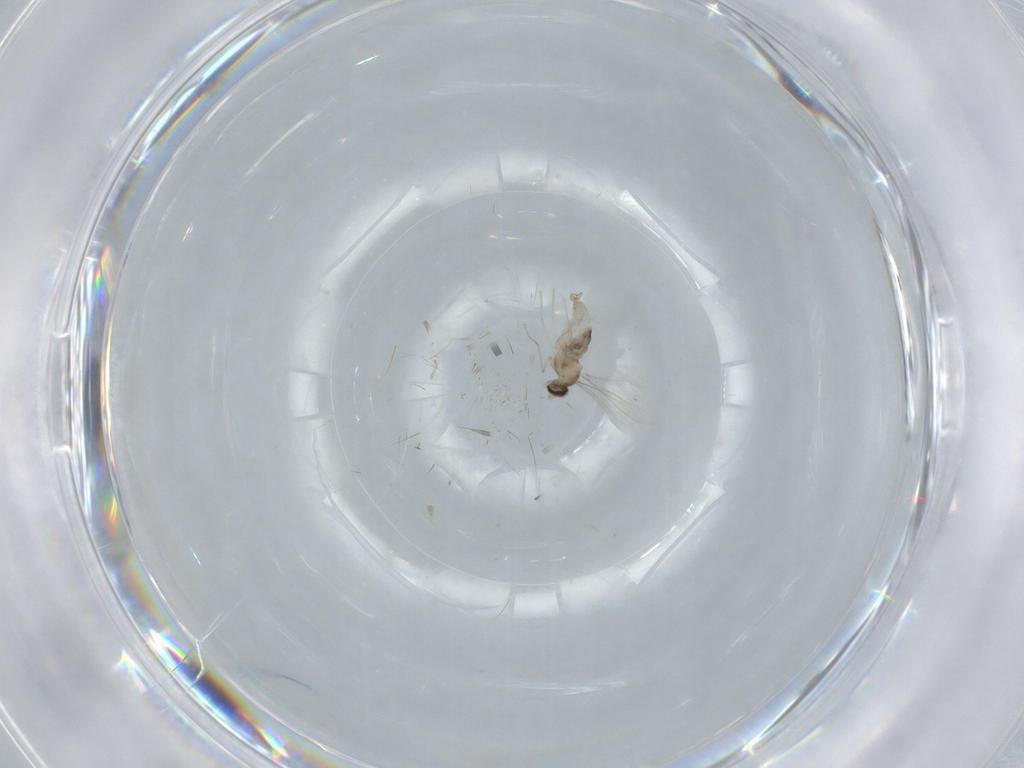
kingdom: Animalia
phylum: Arthropoda
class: Insecta
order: Diptera
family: Cecidomyiidae
